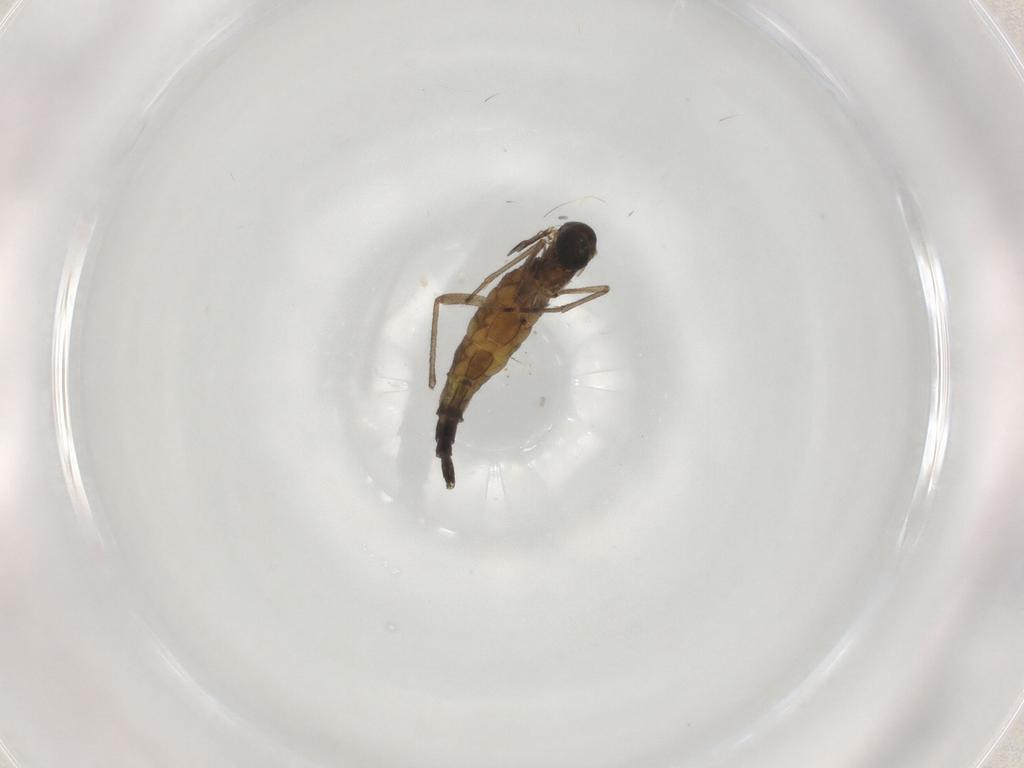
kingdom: Animalia
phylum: Arthropoda
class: Insecta
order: Diptera
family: Sciaridae
